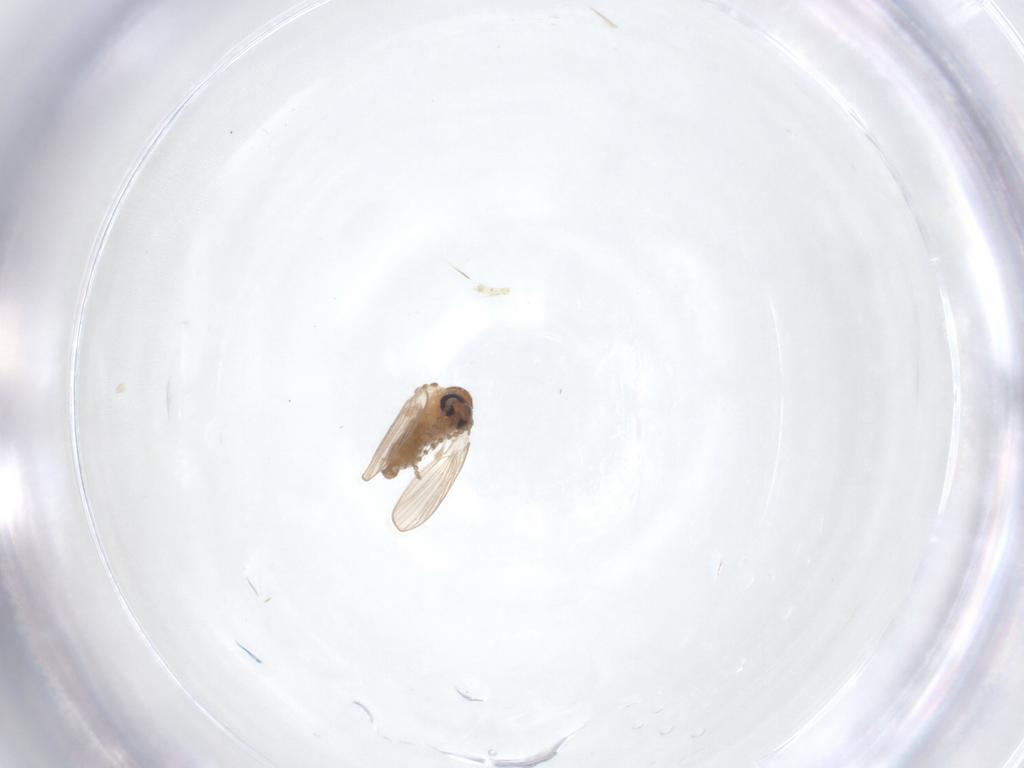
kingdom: Animalia
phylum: Arthropoda
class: Insecta
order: Diptera
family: Psychodidae
